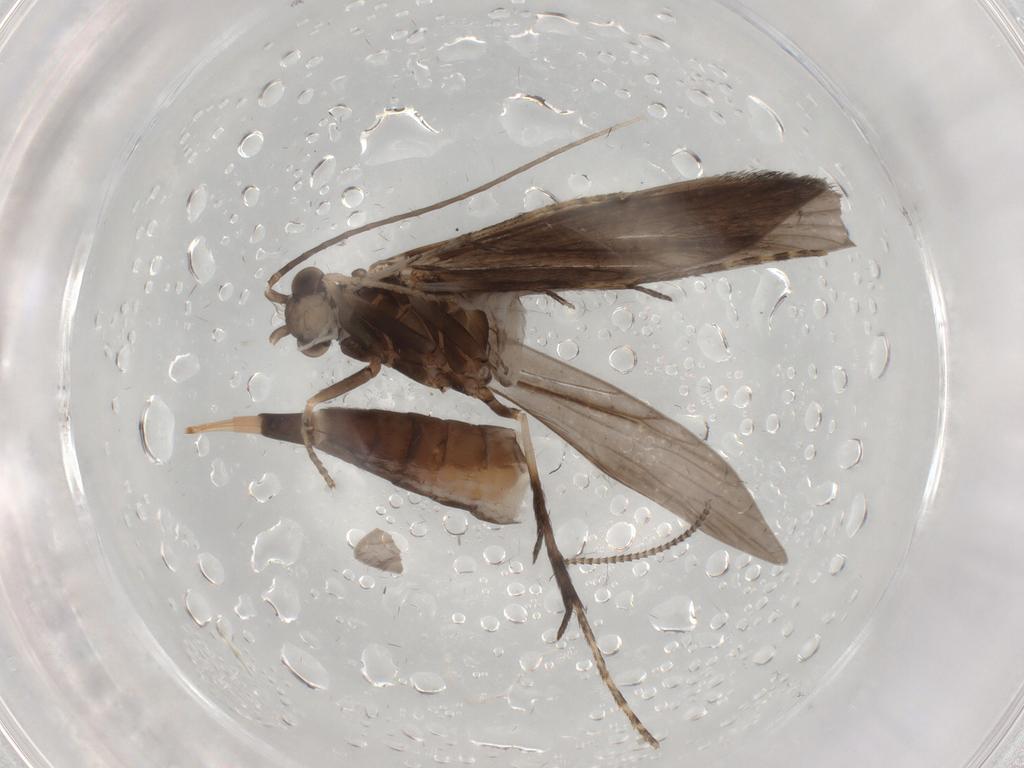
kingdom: Animalia
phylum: Arthropoda
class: Insecta
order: Trichoptera
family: Xiphocentronidae
